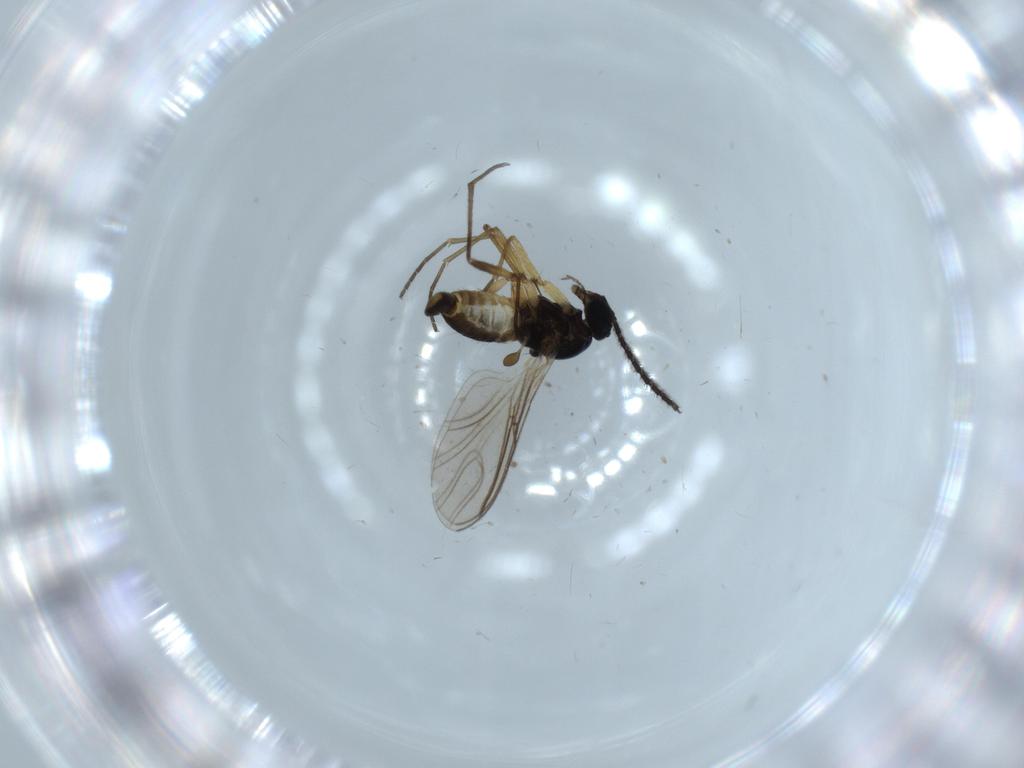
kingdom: Animalia
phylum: Arthropoda
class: Insecta
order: Diptera
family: Sciaridae
